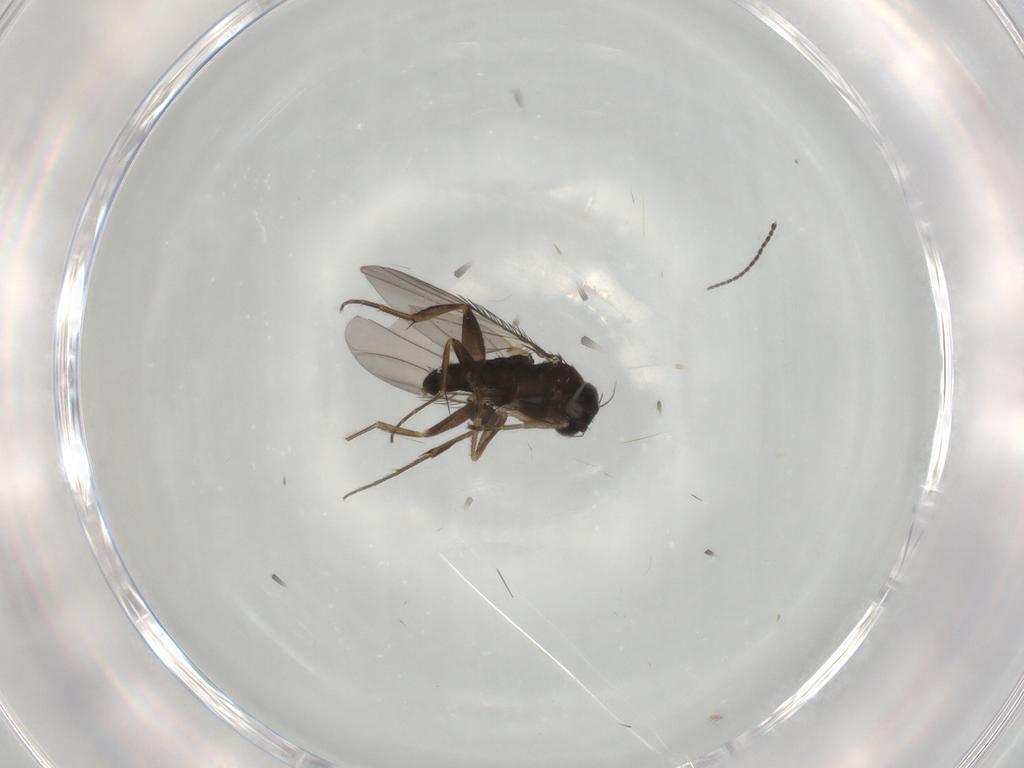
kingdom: Animalia
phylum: Arthropoda
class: Insecta
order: Diptera
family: Phoridae
